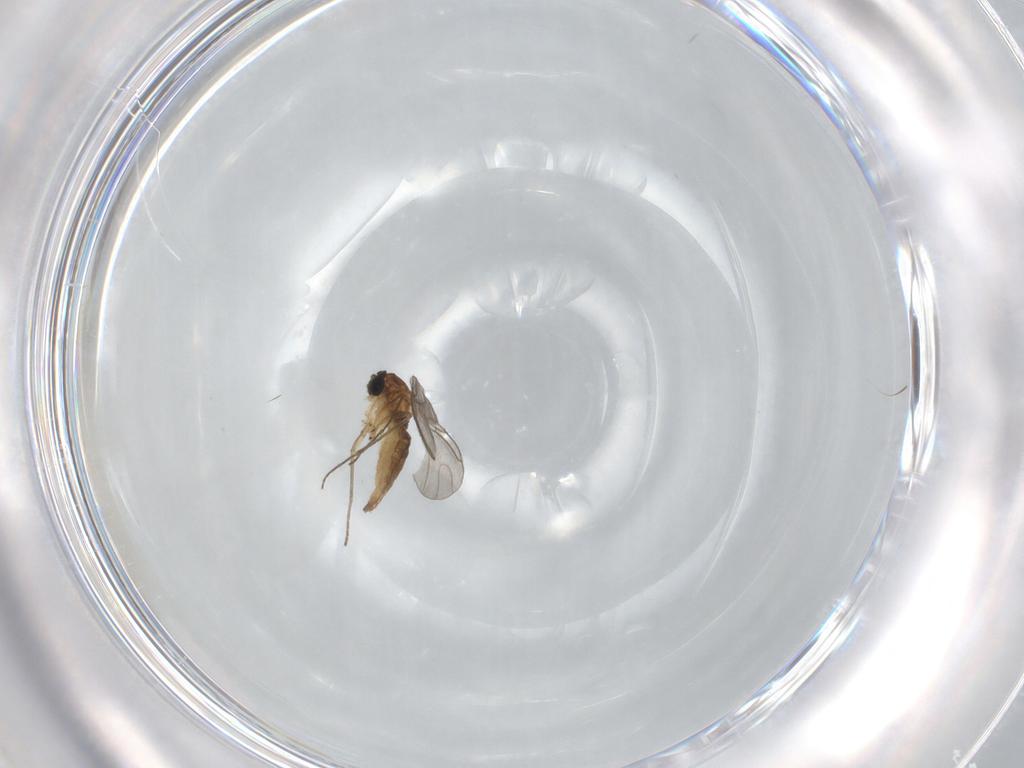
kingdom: Animalia
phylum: Arthropoda
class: Insecta
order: Diptera
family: Sciaridae
